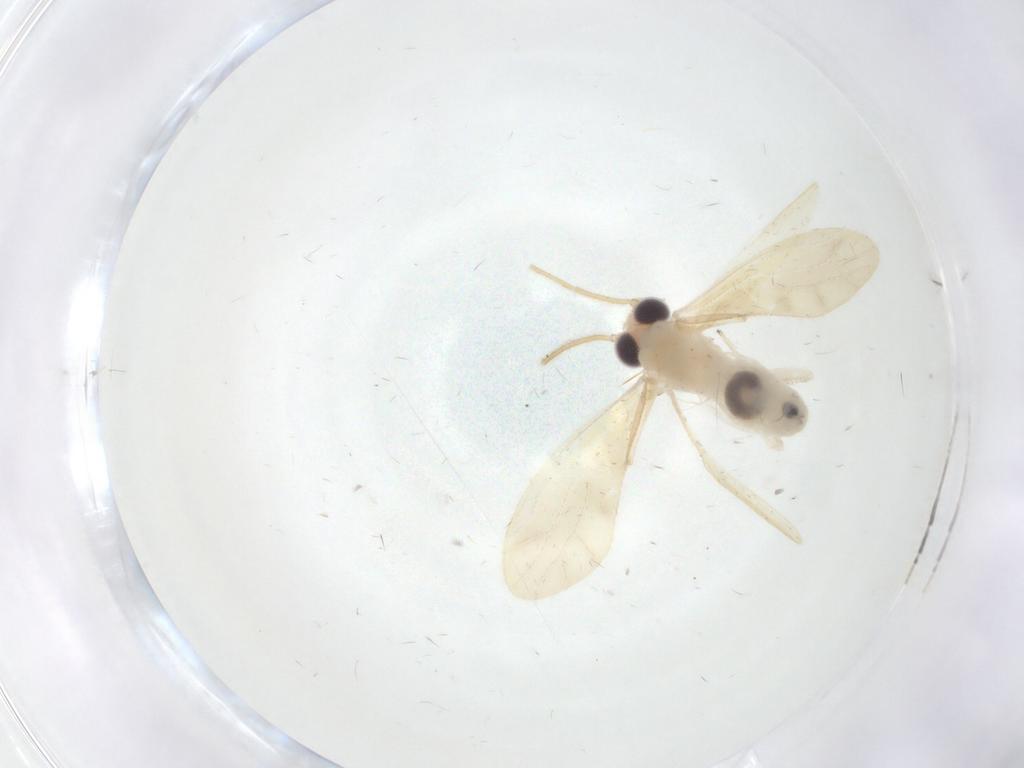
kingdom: Animalia
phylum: Arthropoda
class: Insecta
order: Psocodea
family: Caeciliusidae
